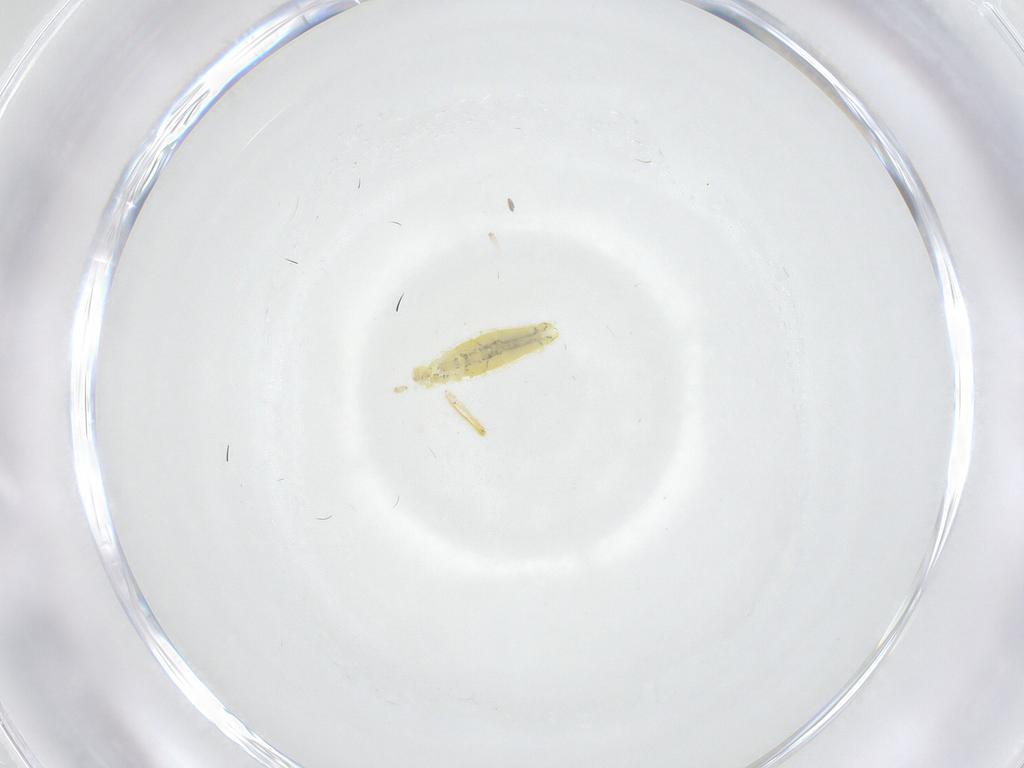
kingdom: Animalia
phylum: Arthropoda
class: Collembola
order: Entomobryomorpha
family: Entomobryidae
